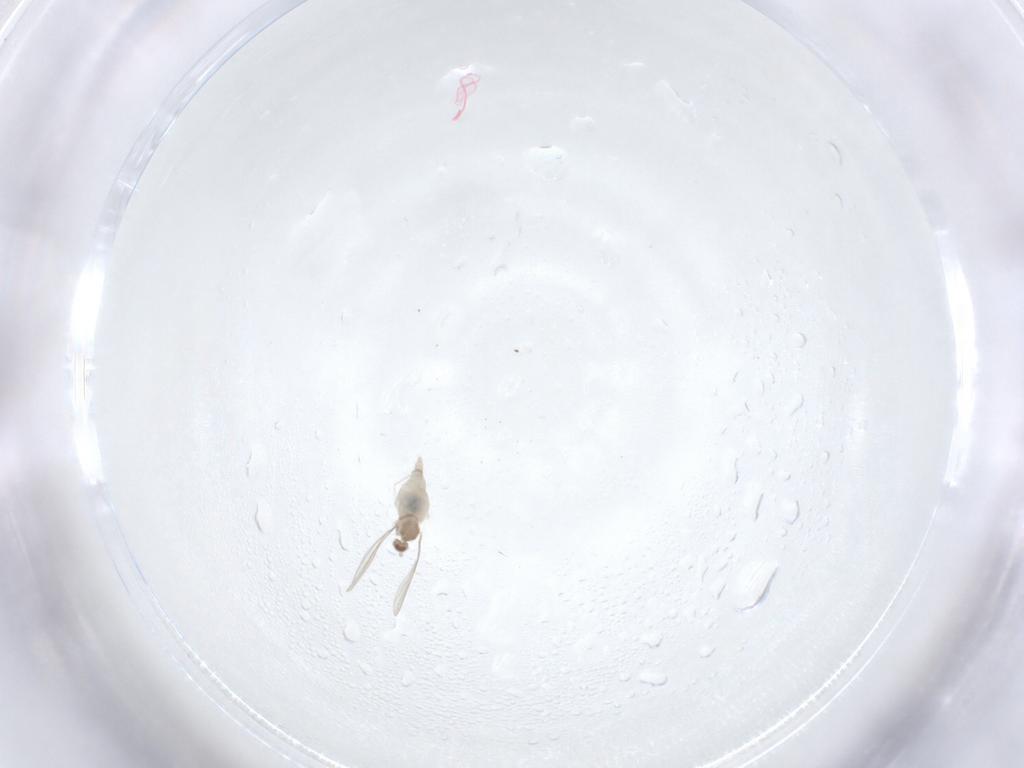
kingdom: Animalia
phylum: Arthropoda
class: Insecta
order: Diptera
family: Cecidomyiidae
